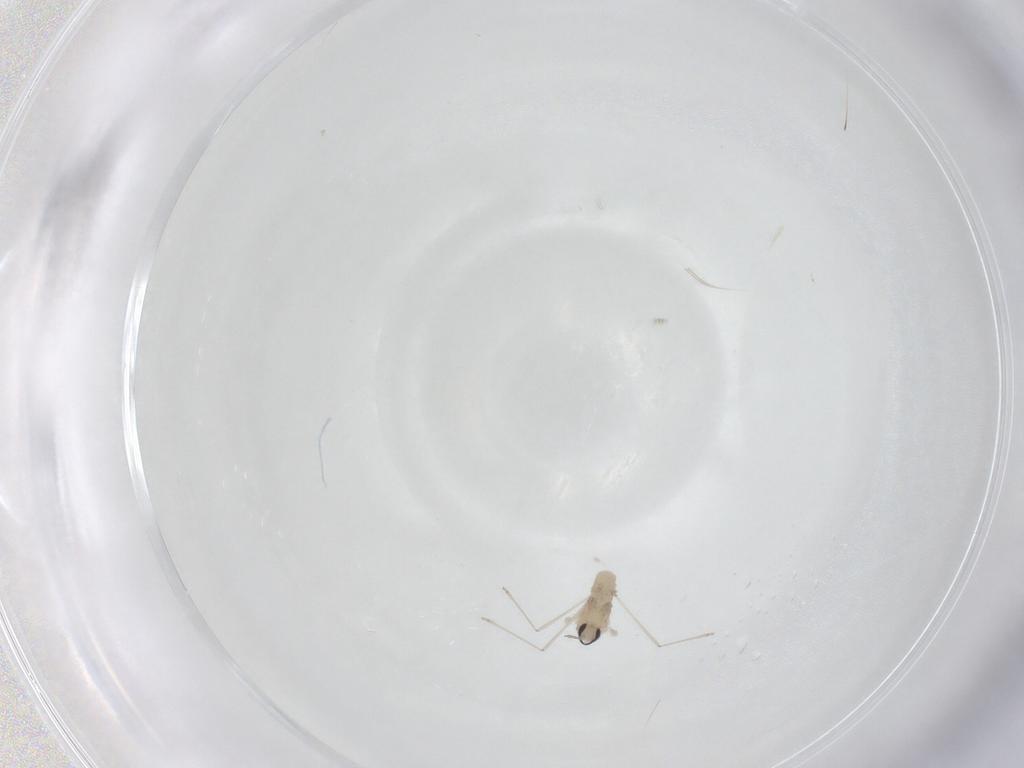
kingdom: Animalia
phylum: Arthropoda
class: Insecta
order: Diptera
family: Cecidomyiidae
